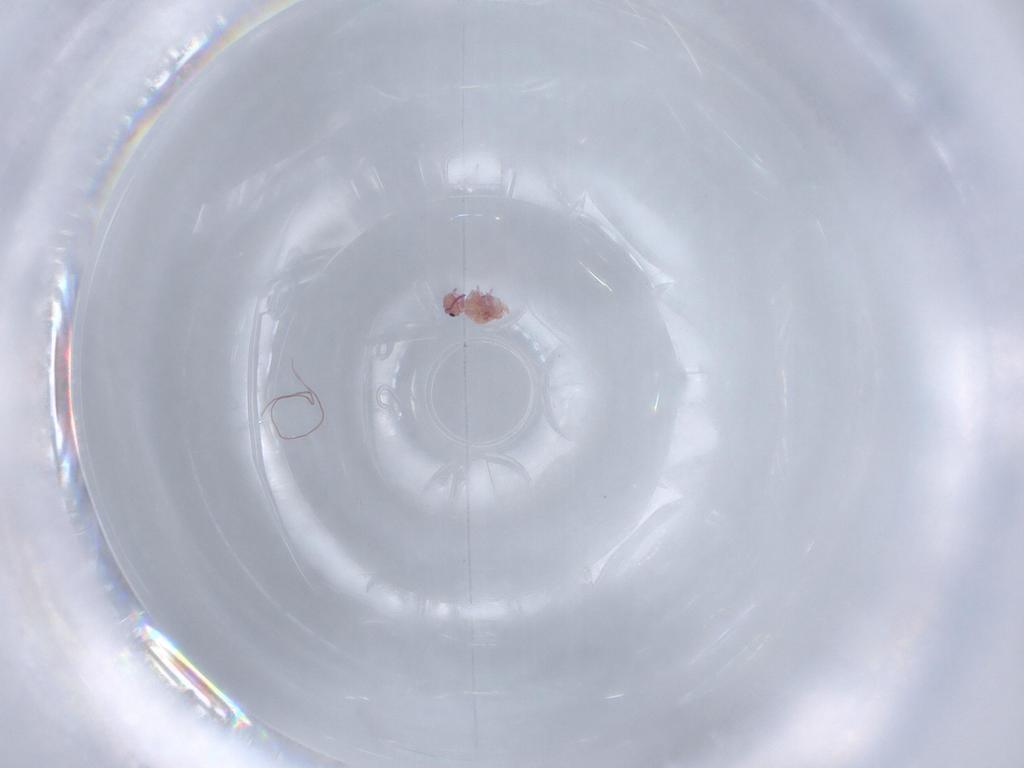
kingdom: Animalia
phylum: Arthropoda
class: Collembola
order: Symphypleona
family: Bourletiellidae
